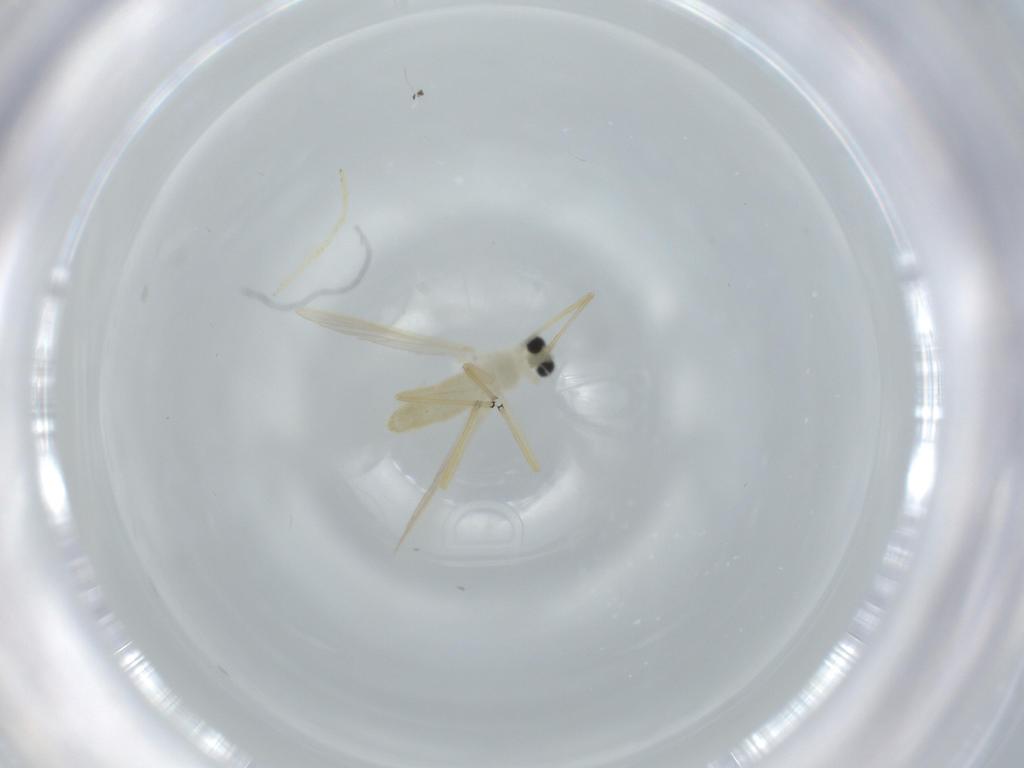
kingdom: Animalia
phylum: Arthropoda
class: Insecta
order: Diptera
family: Chironomidae
